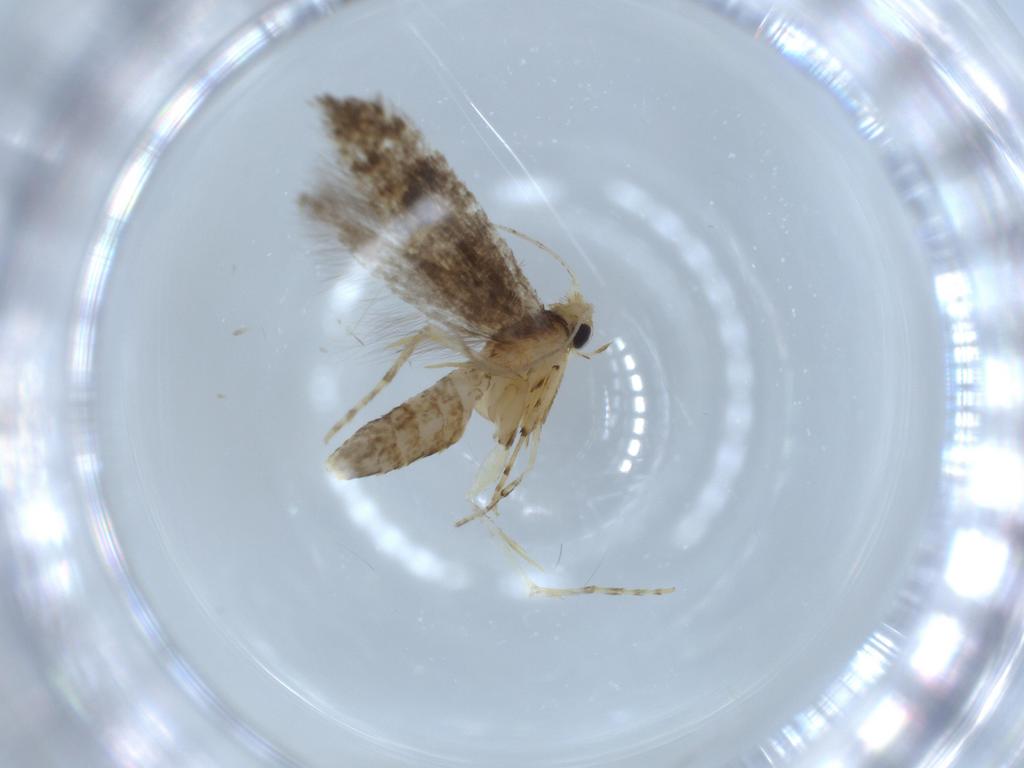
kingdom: Animalia
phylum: Arthropoda
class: Insecta
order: Lepidoptera
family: Argyresthiidae
